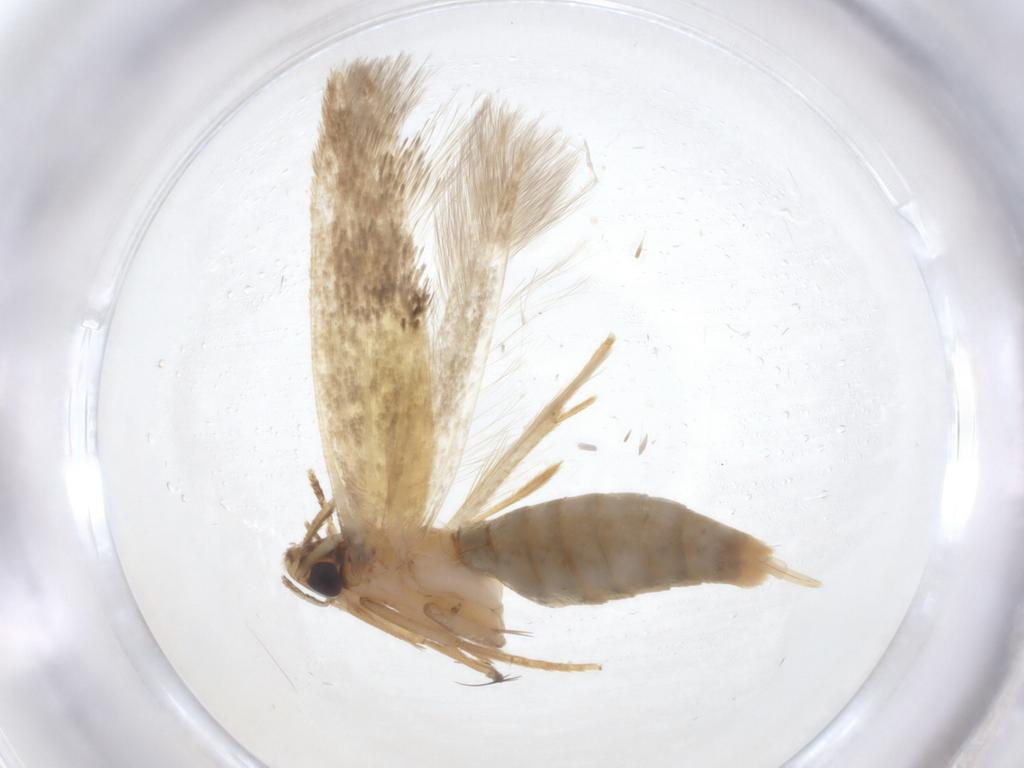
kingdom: Animalia
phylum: Arthropoda
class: Insecta
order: Lepidoptera
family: Tineidae
